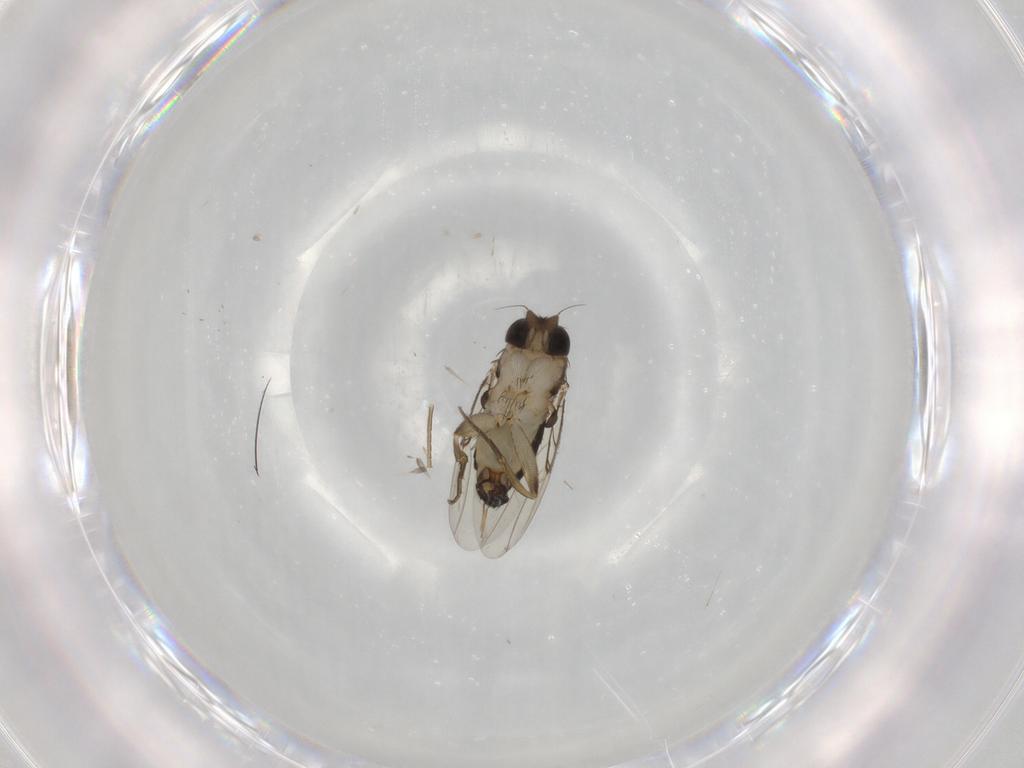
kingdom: Animalia
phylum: Arthropoda
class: Insecta
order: Diptera
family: Phoridae
